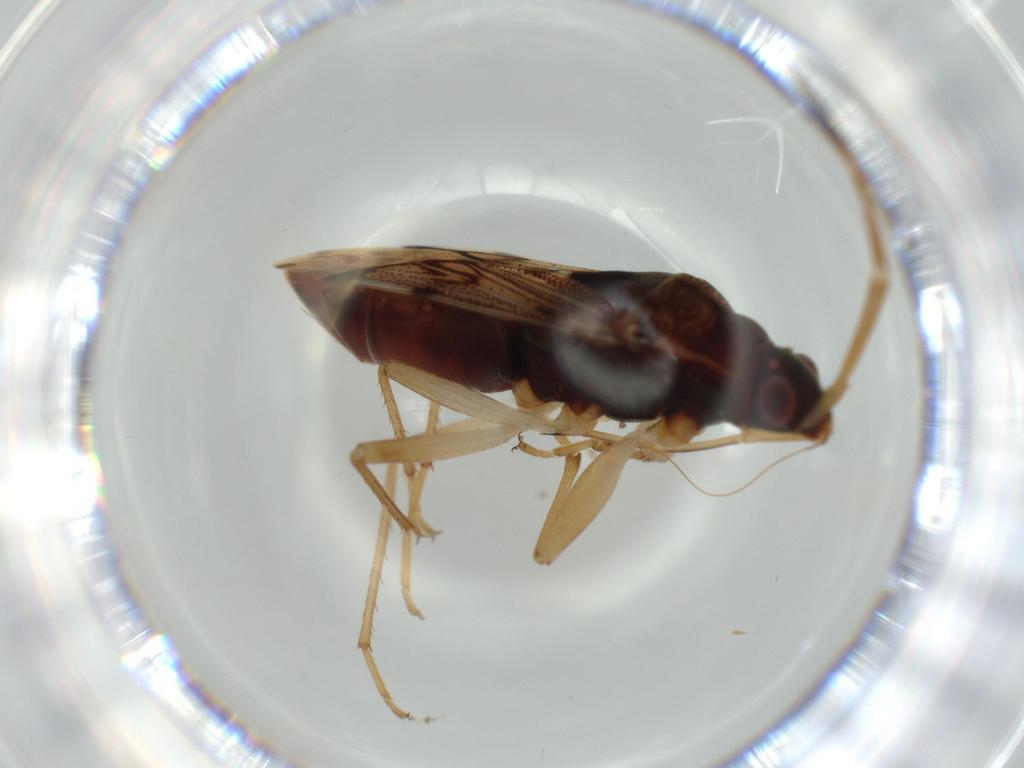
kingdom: Animalia
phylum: Arthropoda
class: Insecta
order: Hemiptera
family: Rhyparochromidae
